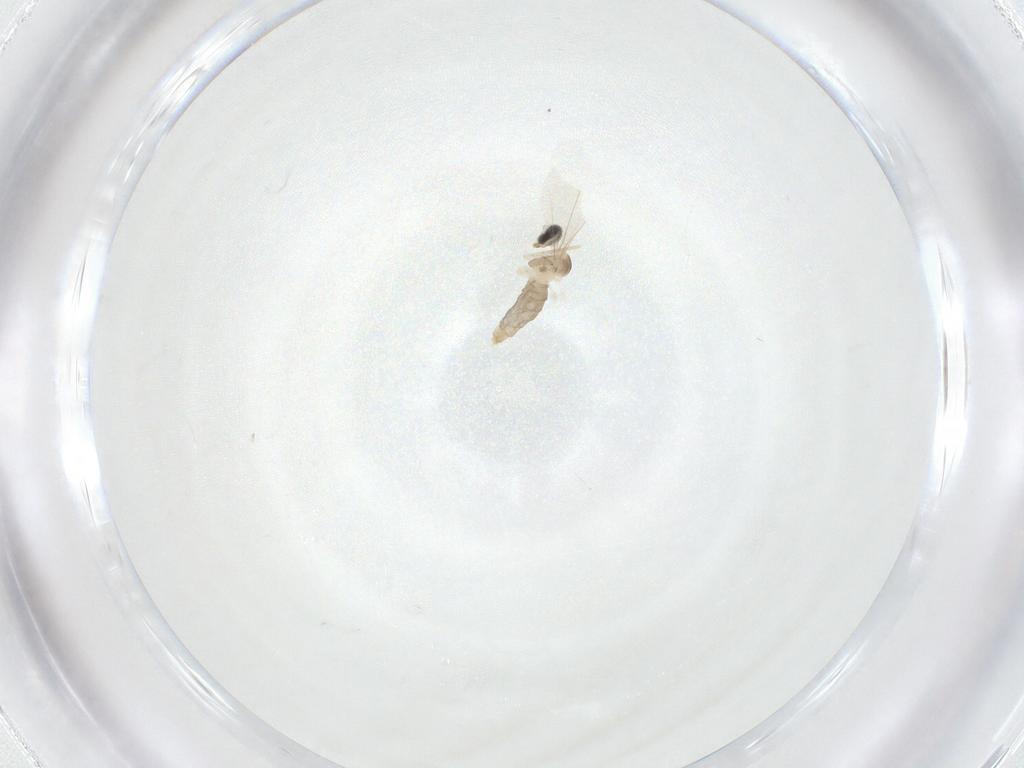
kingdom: Animalia
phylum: Arthropoda
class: Insecta
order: Diptera
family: Cecidomyiidae
